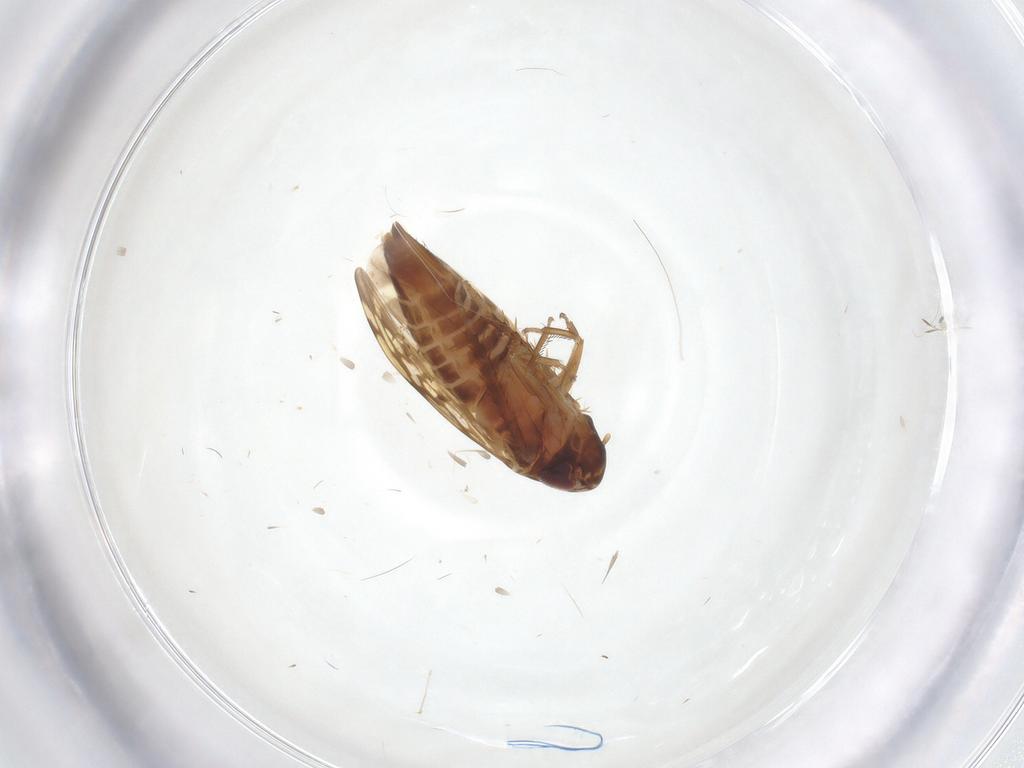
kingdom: Animalia
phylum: Arthropoda
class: Insecta
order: Hemiptera
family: Cicadellidae
